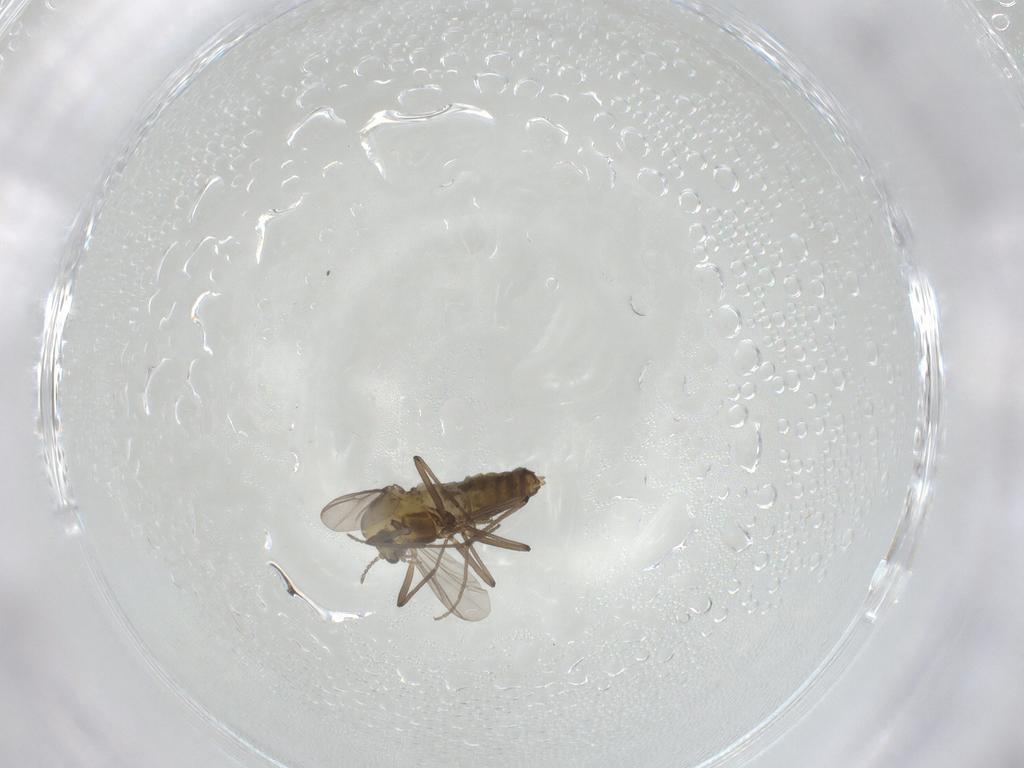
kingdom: Animalia
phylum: Arthropoda
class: Insecta
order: Diptera
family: Chironomidae
